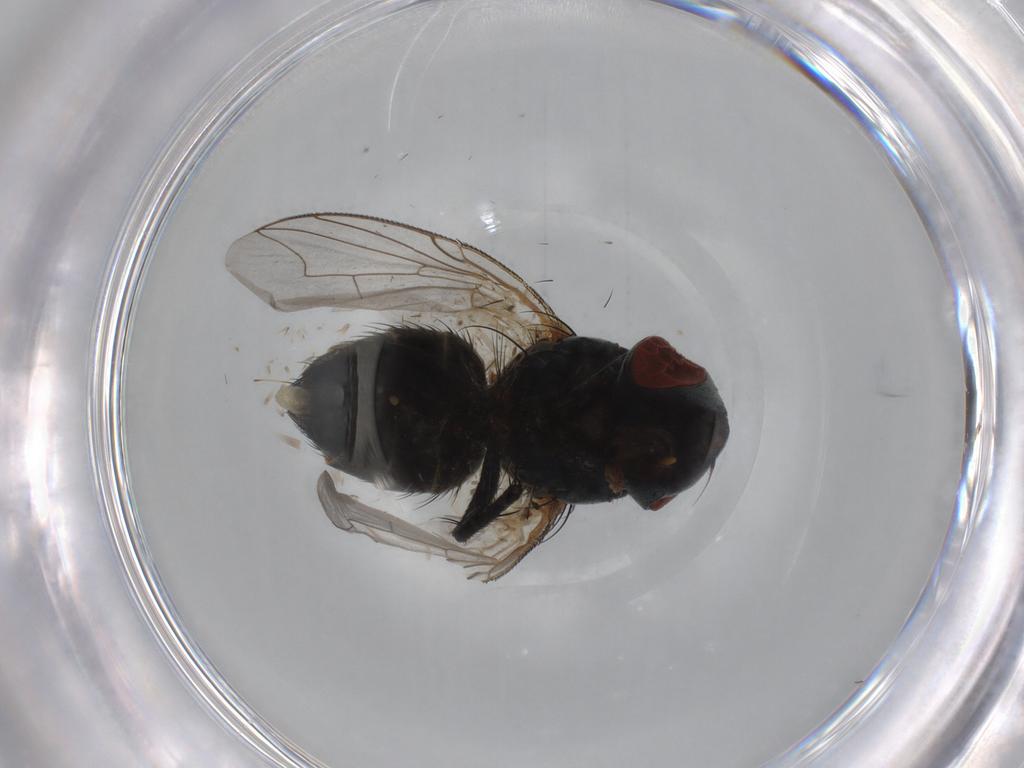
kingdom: Animalia
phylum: Arthropoda
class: Insecta
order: Diptera
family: Sarcophagidae
